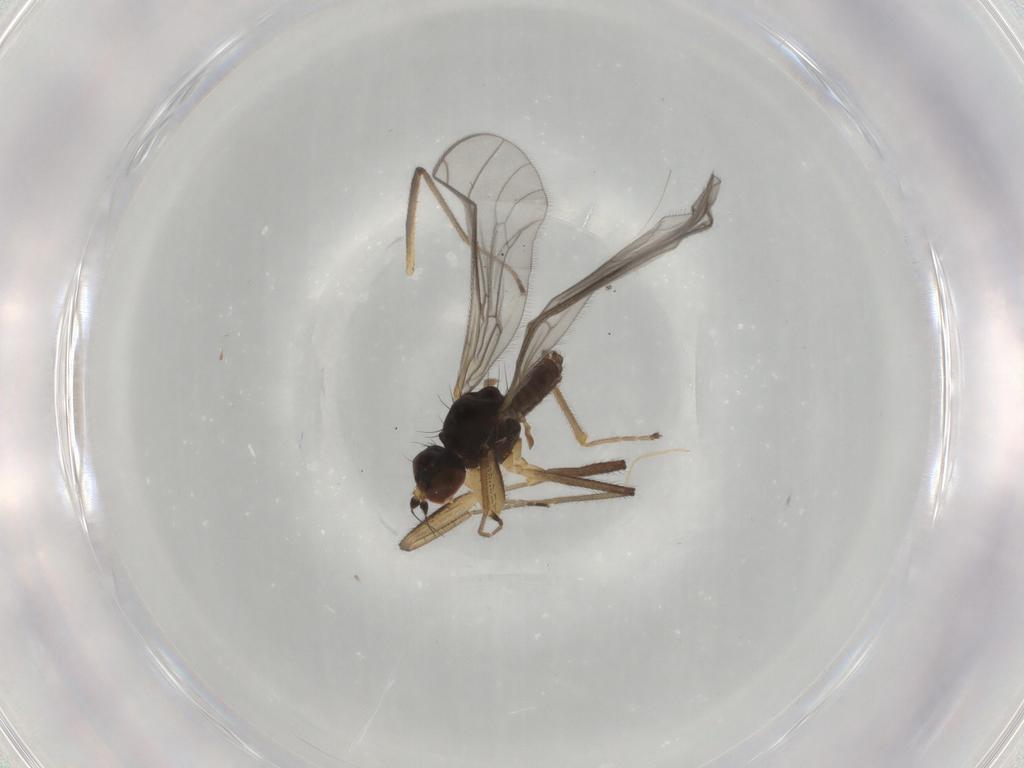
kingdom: Animalia
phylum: Arthropoda
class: Insecta
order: Diptera
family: Empididae
